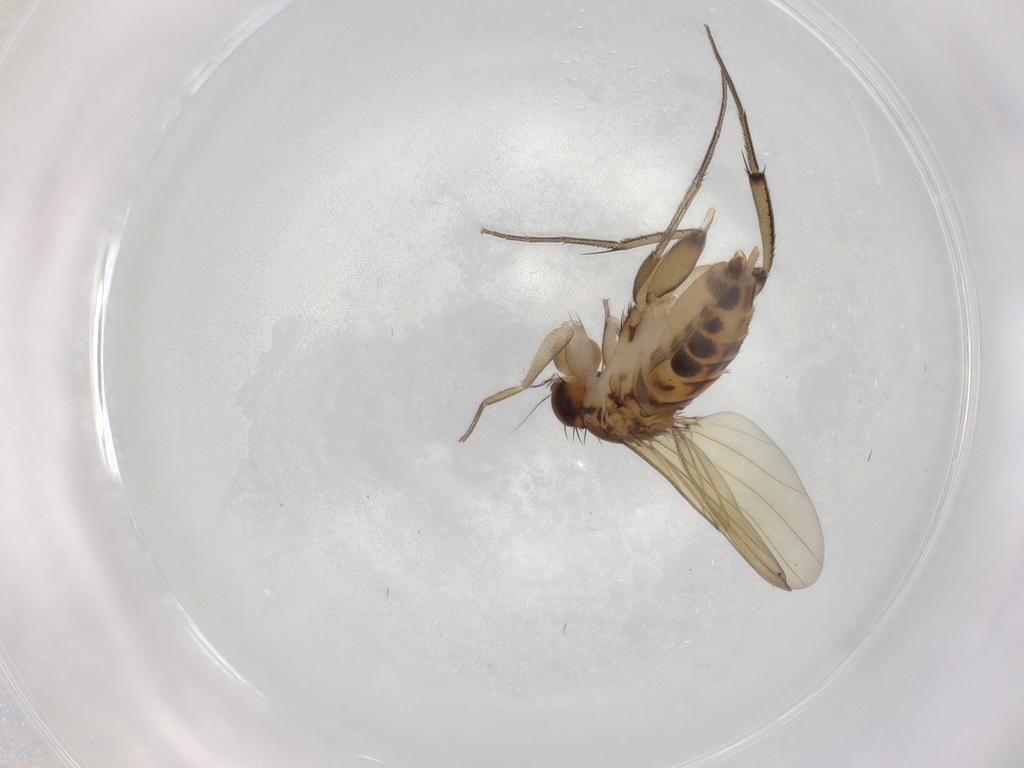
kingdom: Animalia
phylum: Arthropoda
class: Insecta
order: Diptera
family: Phoridae
